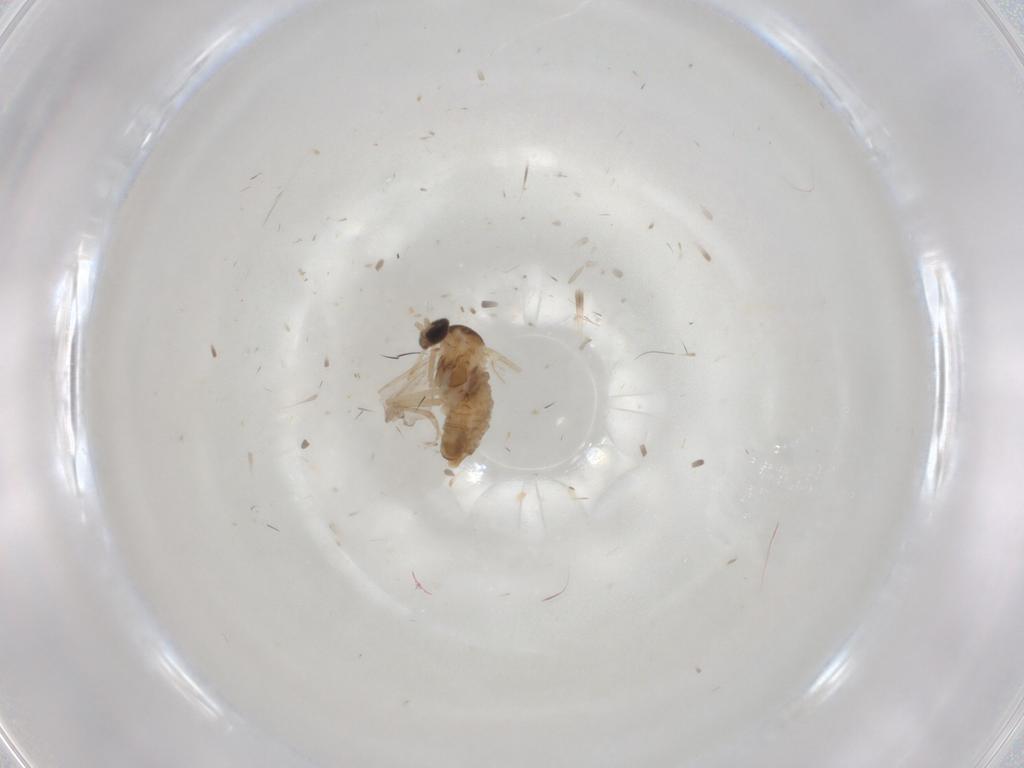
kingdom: Animalia
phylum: Arthropoda
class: Insecta
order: Diptera
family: Cecidomyiidae
